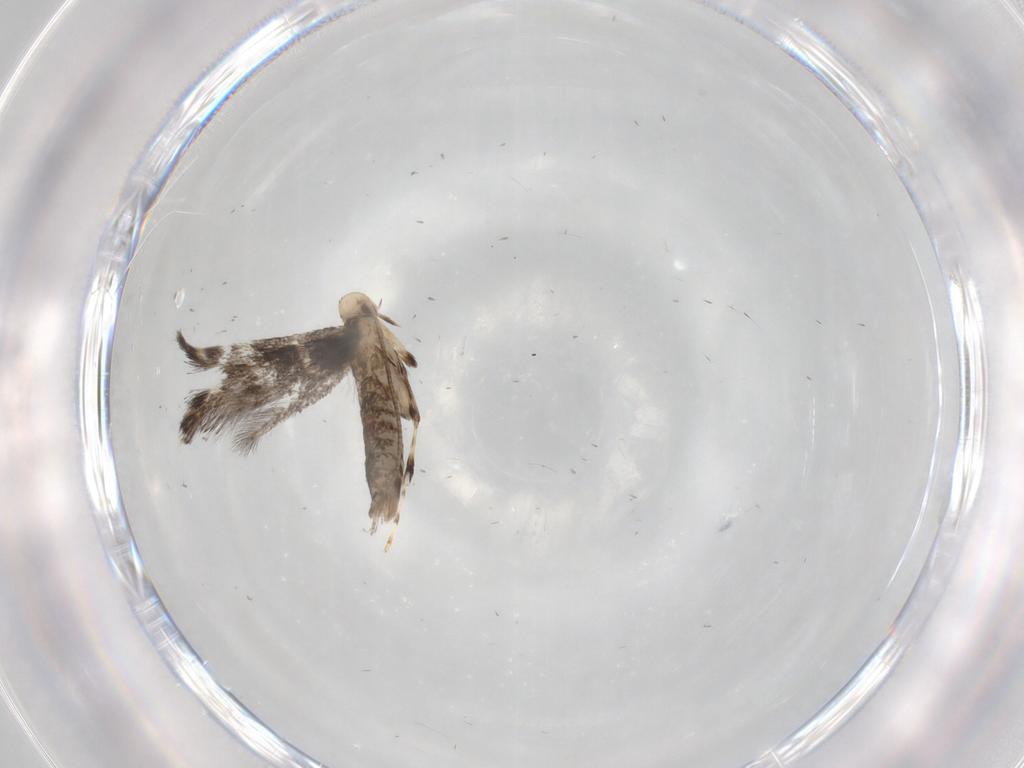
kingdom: Animalia
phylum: Arthropoda
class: Insecta
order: Lepidoptera
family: Gracillariidae
